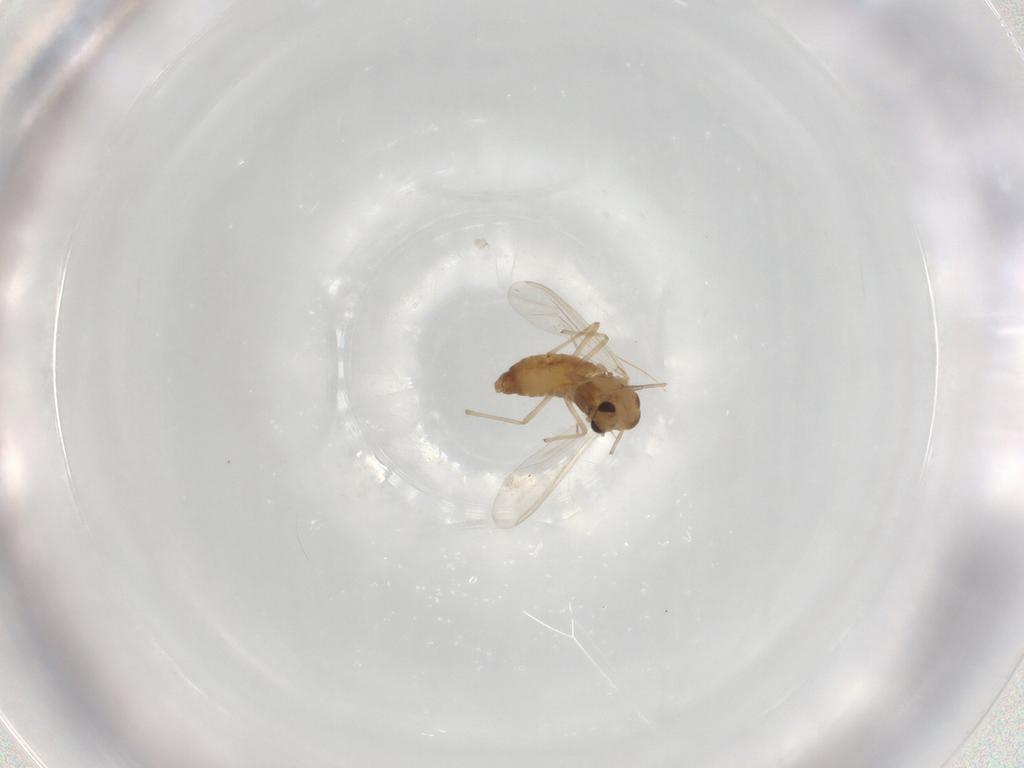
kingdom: Animalia
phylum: Arthropoda
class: Insecta
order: Diptera
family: Chironomidae
